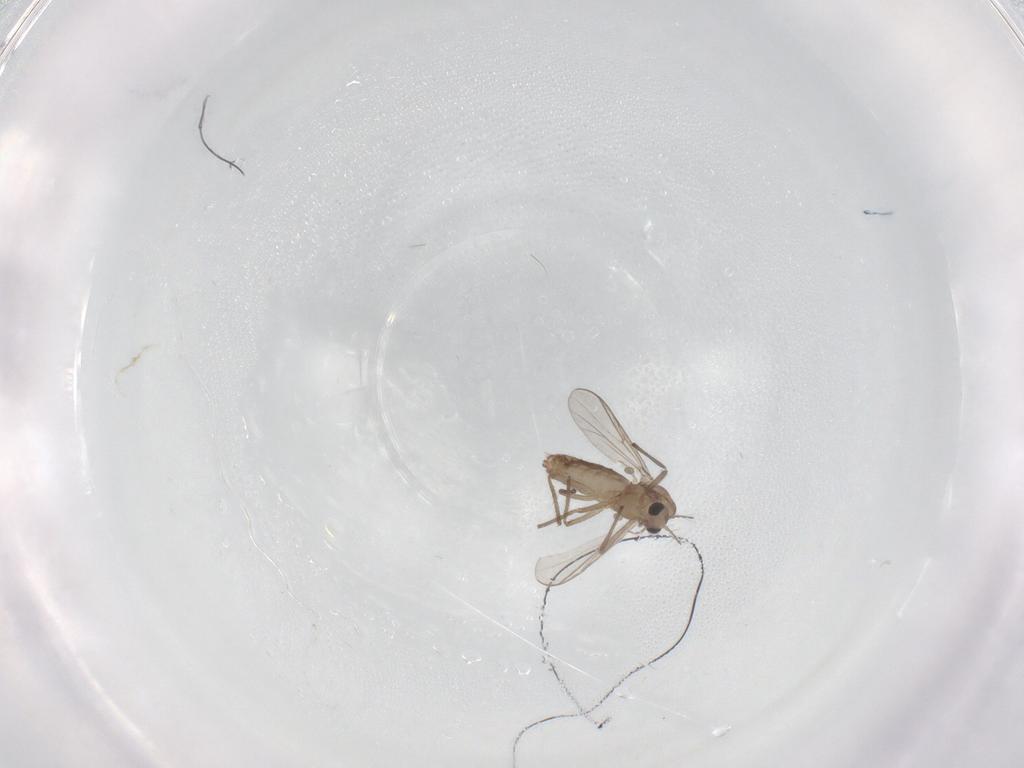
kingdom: Animalia
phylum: Arthropoda
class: Insecta
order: Diptera
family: Chironomidae
